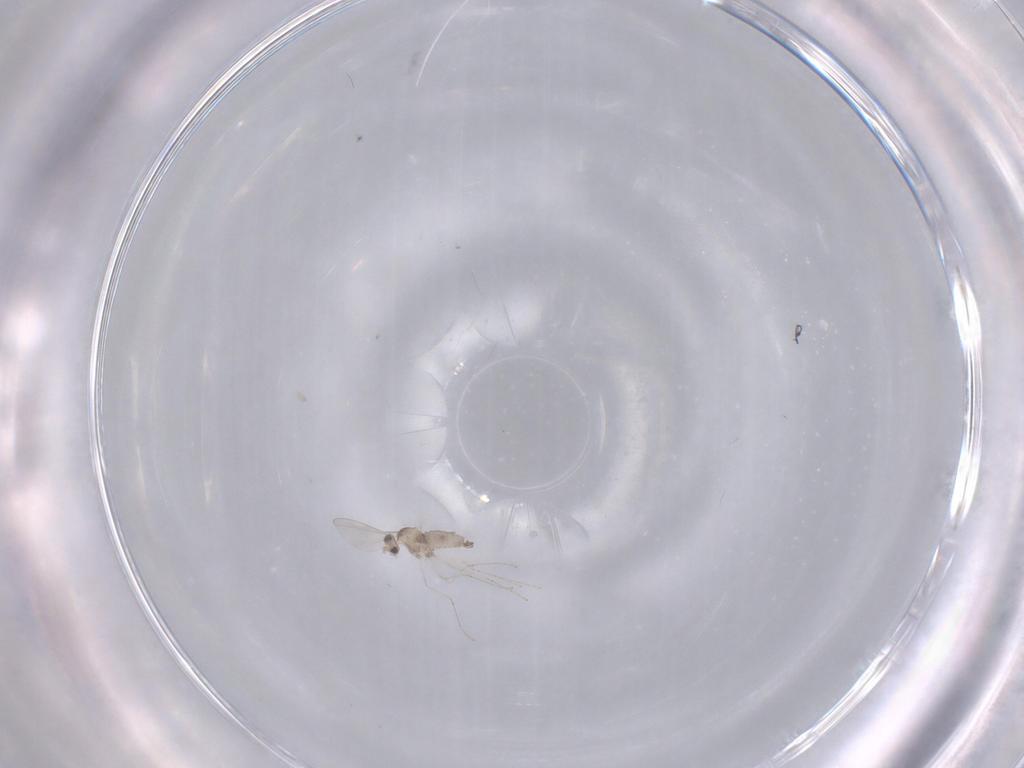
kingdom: Animalia
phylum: Arthropoda
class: Insecta
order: Diptera
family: Cecidomyiidae
